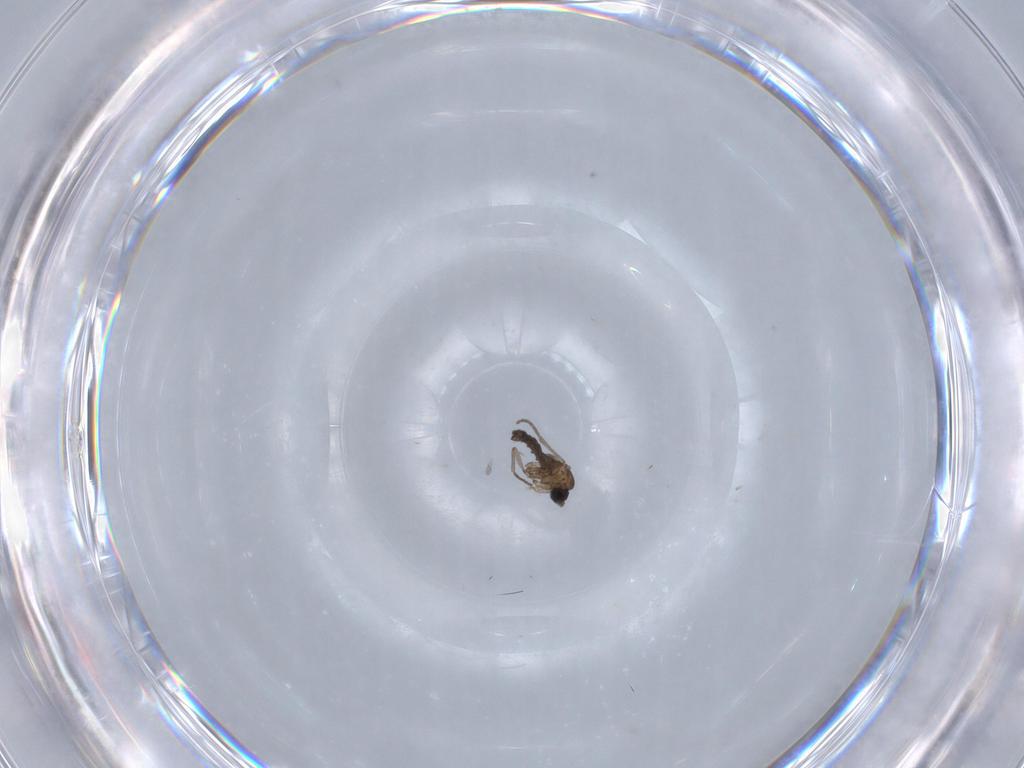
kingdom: Animalia
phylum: Arthropoda
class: Insecta
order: Diptera
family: Sciaridae
